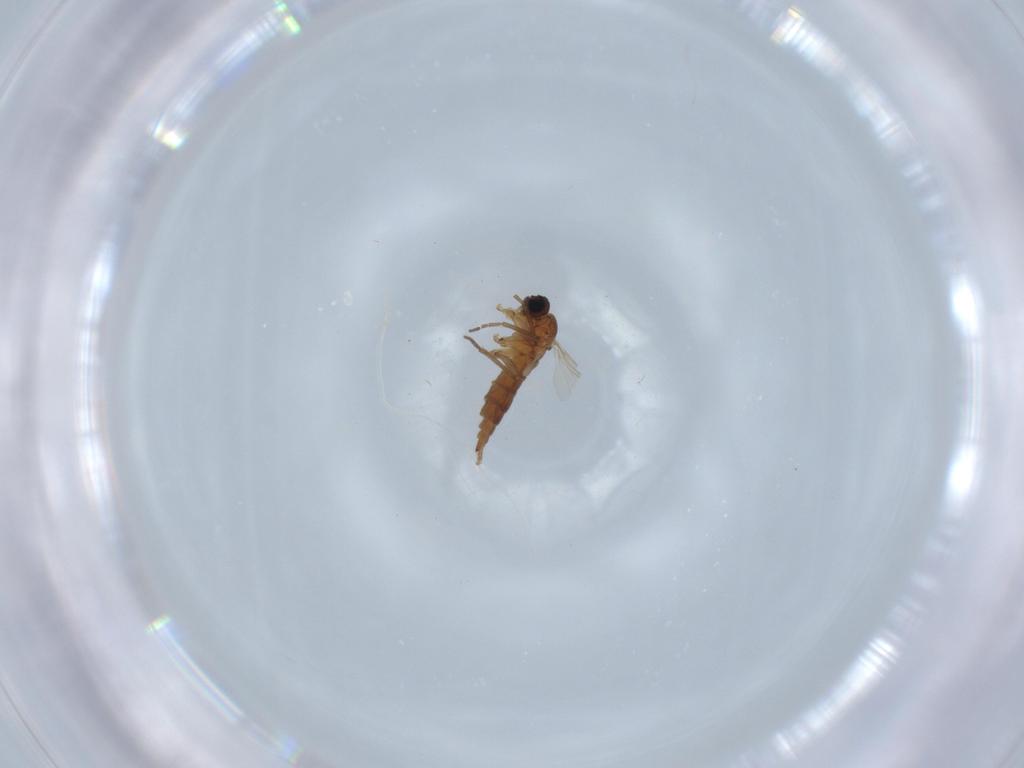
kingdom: Animalia
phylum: Arthropoda
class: Insecta
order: Diptera
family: Sciaridae
